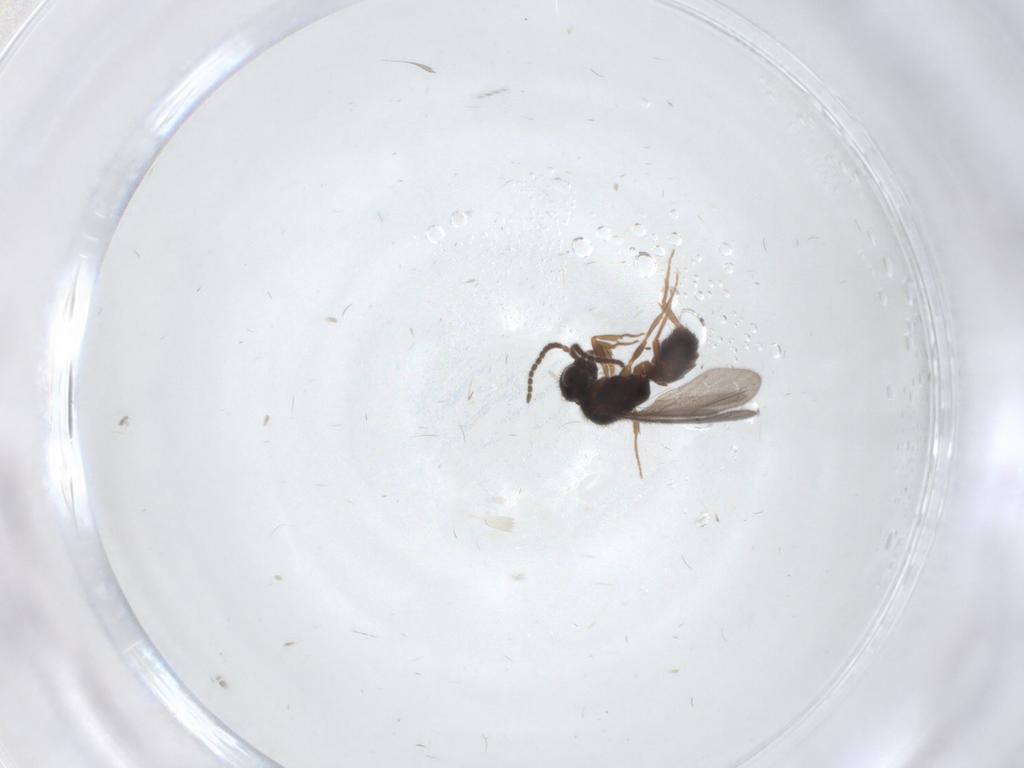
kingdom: Animalia
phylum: Arthropoda
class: Insecta
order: Hymenoptera
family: Bethylidae
